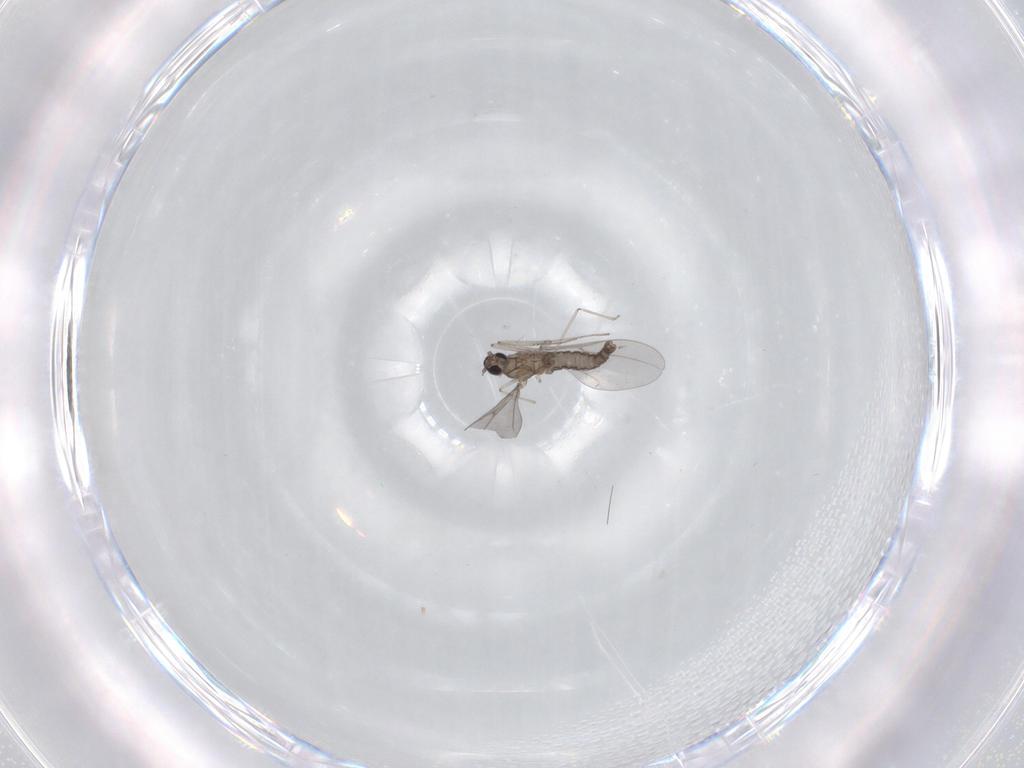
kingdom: Animalia
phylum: Arthropoda
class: Insecta
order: Diptera
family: Cecidomyiidae
